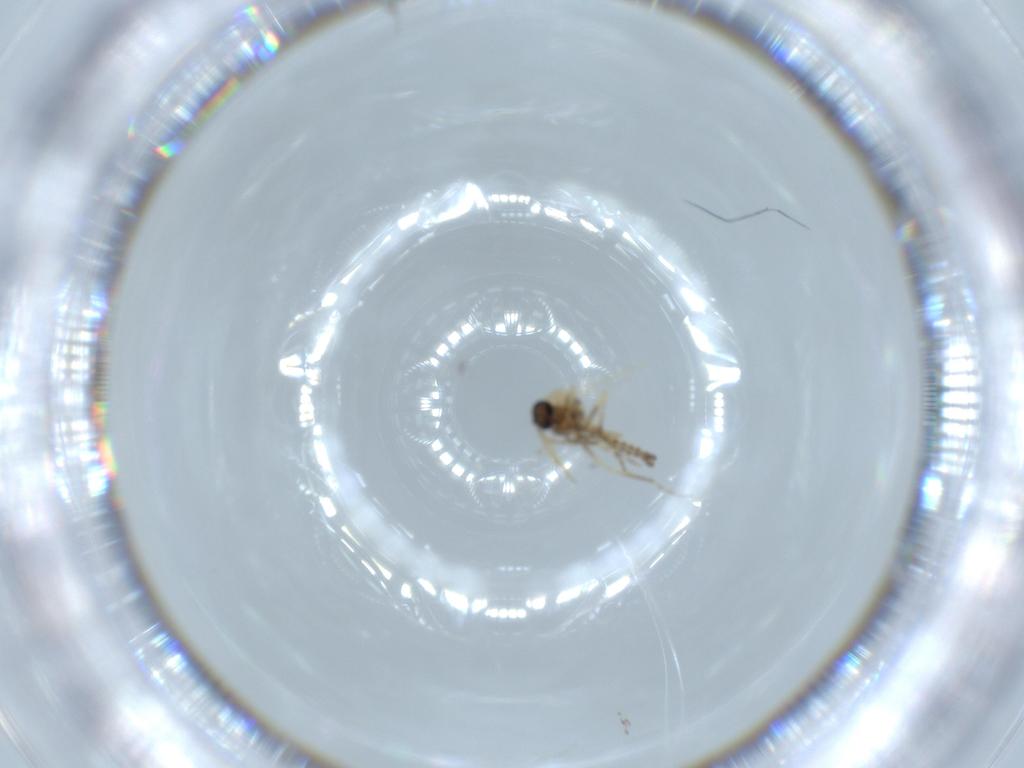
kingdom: Animalia
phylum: Arthropoda
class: Insecta
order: Diptera
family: Ceratopogonidae
